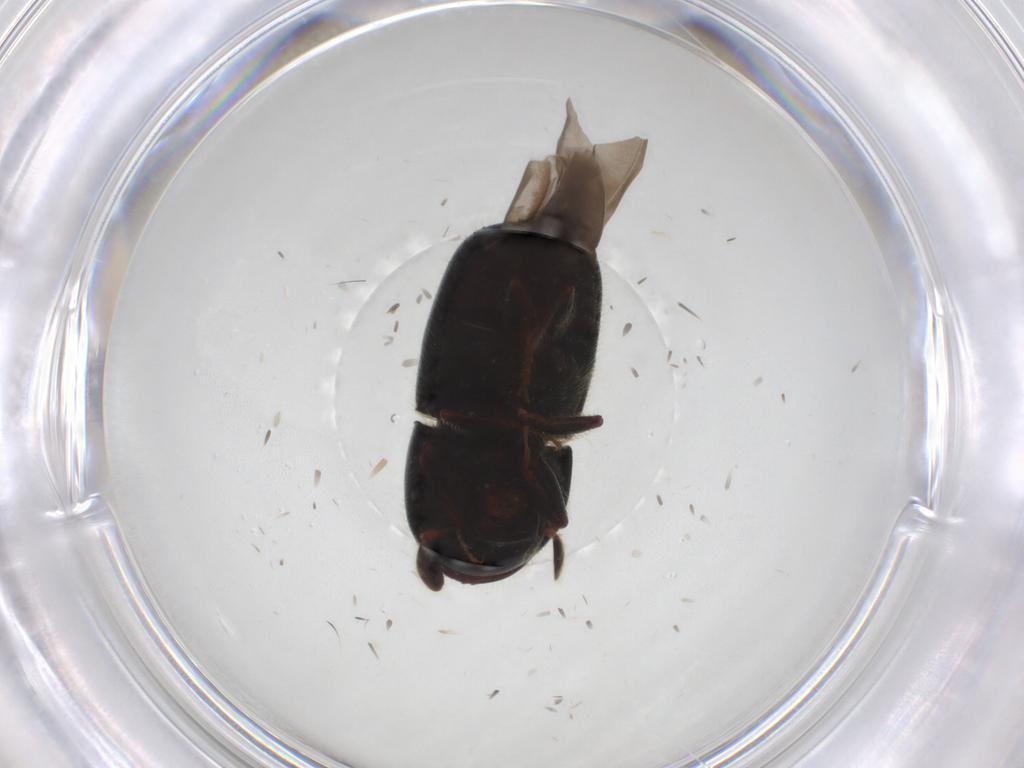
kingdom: Animalia
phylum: Arthropoda
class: Insecta
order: Coleoptera
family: Curculionidae
